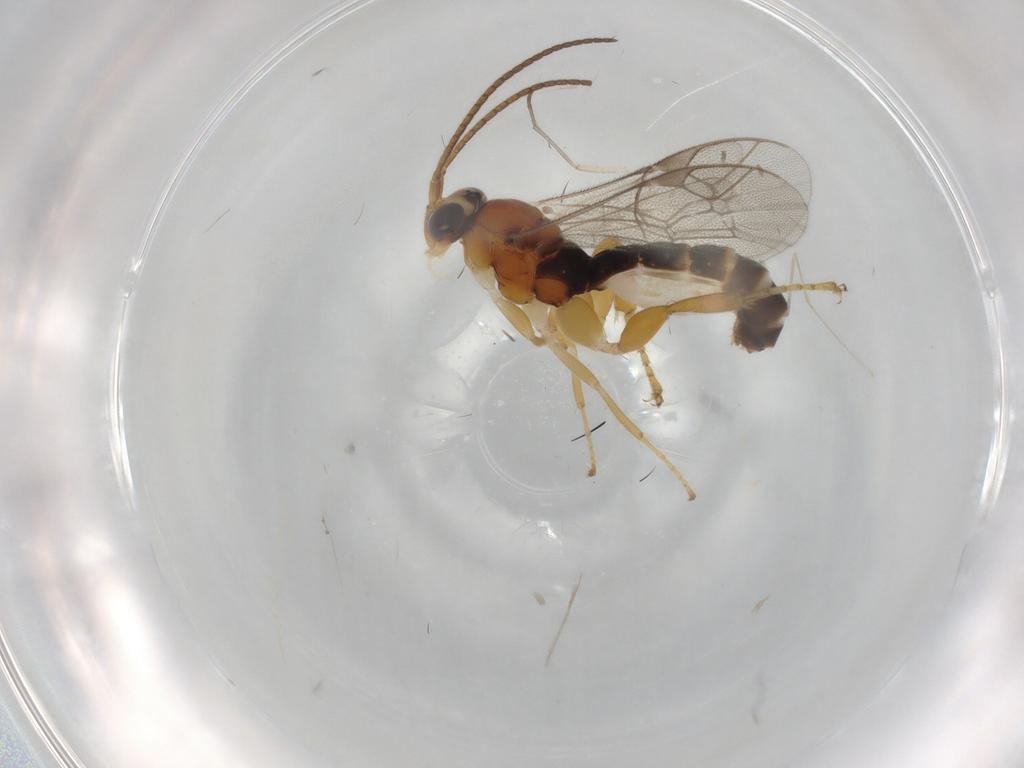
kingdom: Animalia
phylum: Arthropoda
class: Insecta
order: Hymenoptera
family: Ichneumonidae
